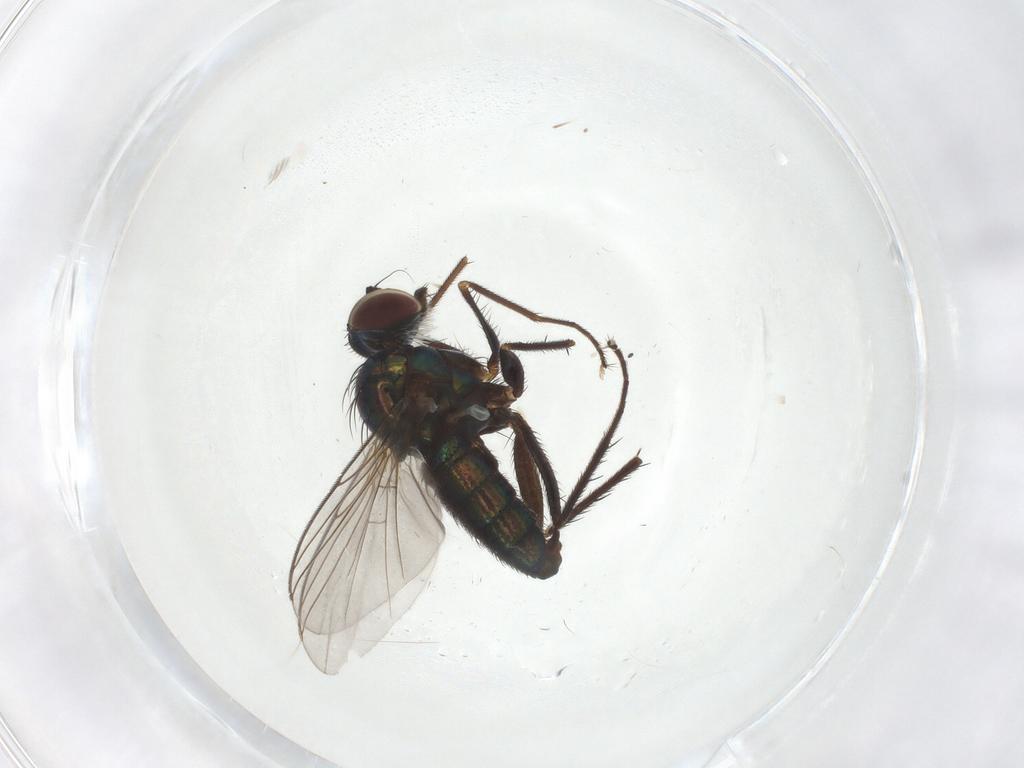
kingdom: Animalia
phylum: Arthropoda
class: Insecta
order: Diptera
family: Dolichopodidae
